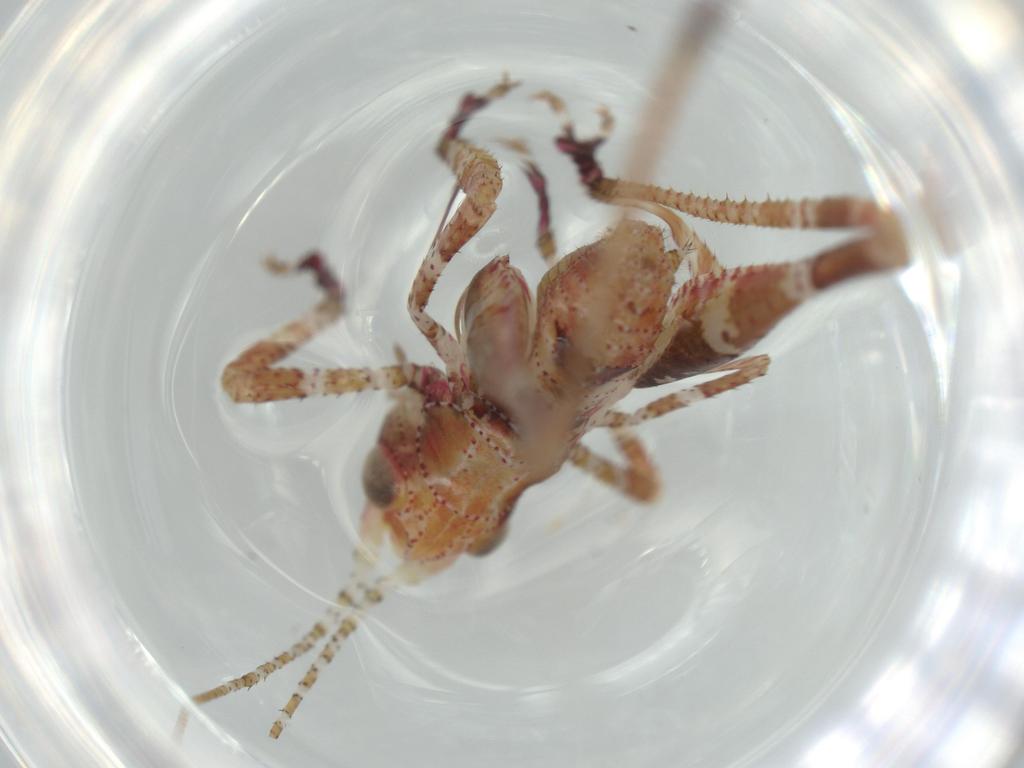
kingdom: Animalia
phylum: Arthropoda
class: Insecta
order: Orthoptera
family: Tettigoniidae
